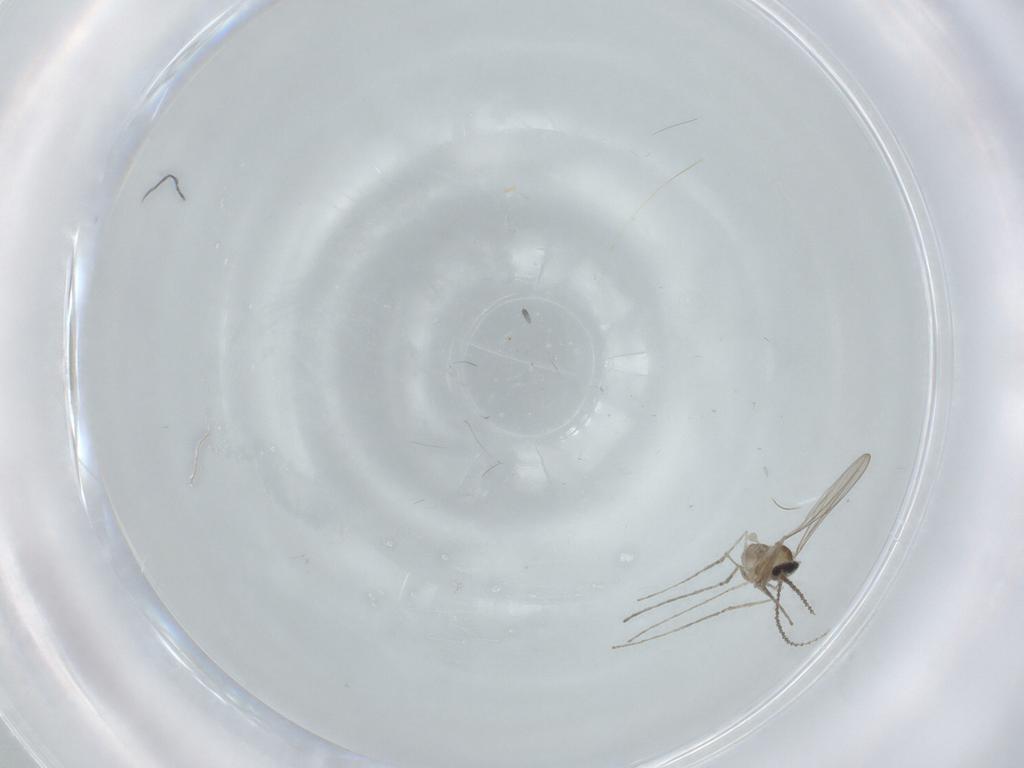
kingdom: Animalia
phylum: Arthropoda
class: Insecta
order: Diptera
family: Cecidomyiidae
